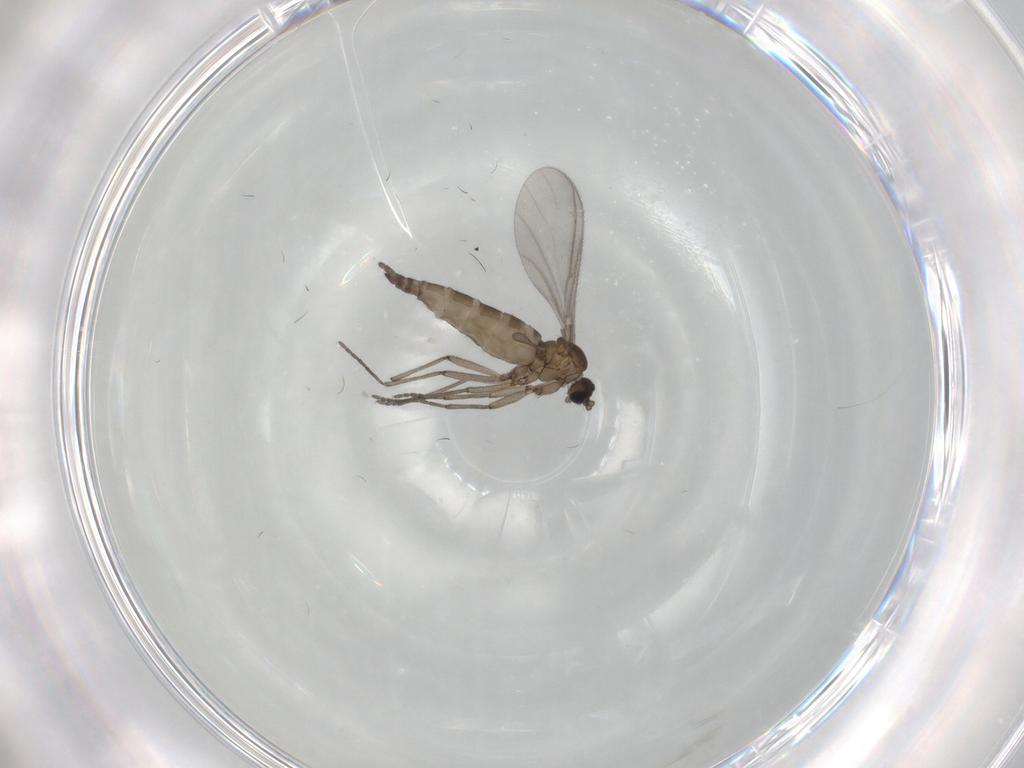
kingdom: Animalia
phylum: Arthropoda
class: Insecta
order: Diptera
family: Sciaridae
